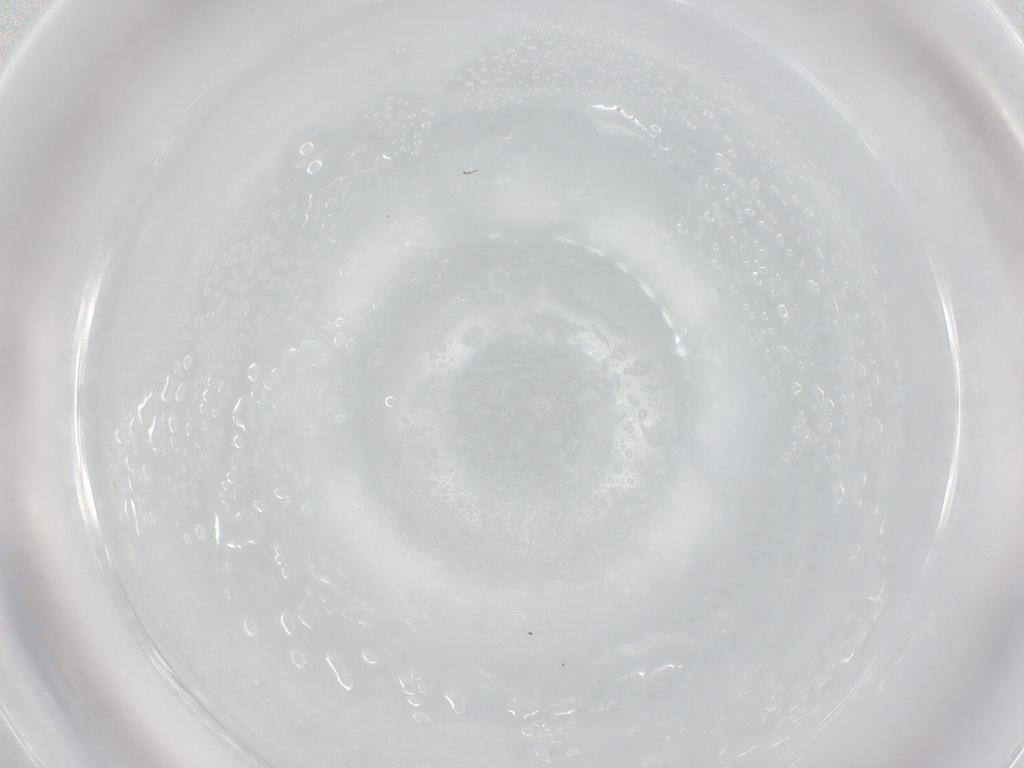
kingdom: Animalia
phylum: Arthropoda
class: Arachnida
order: Trombidiformes
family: Pygmephoridae
